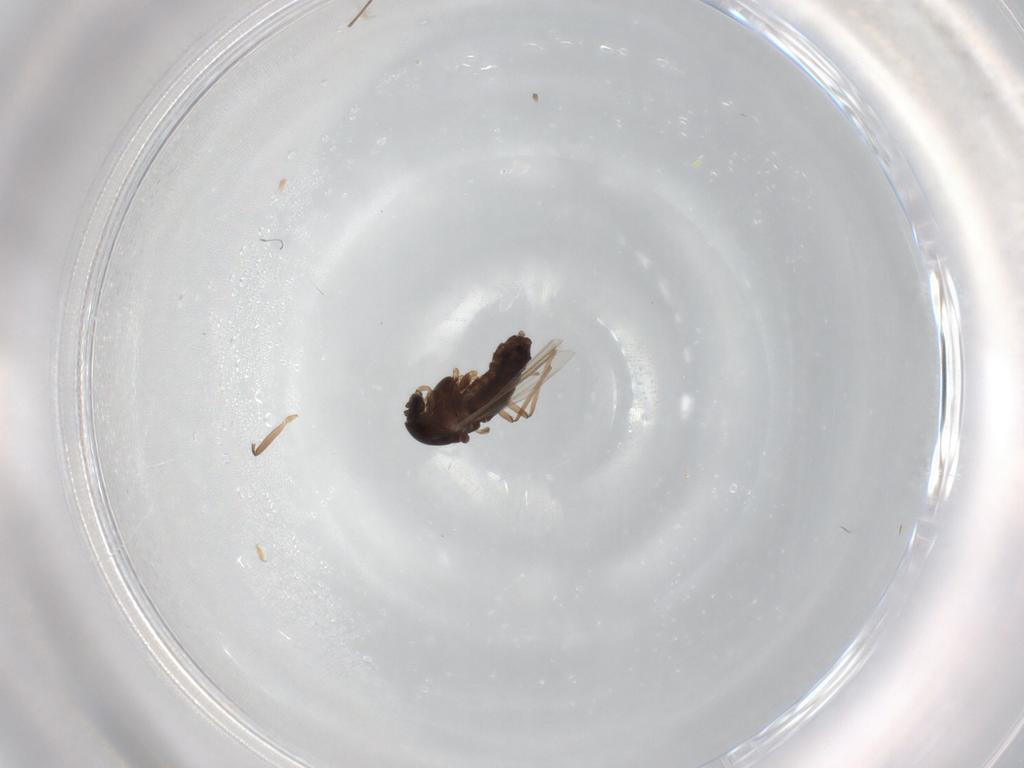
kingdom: Animalia
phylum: Arthropoda
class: Insecta
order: Diptera
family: Chironomidae
